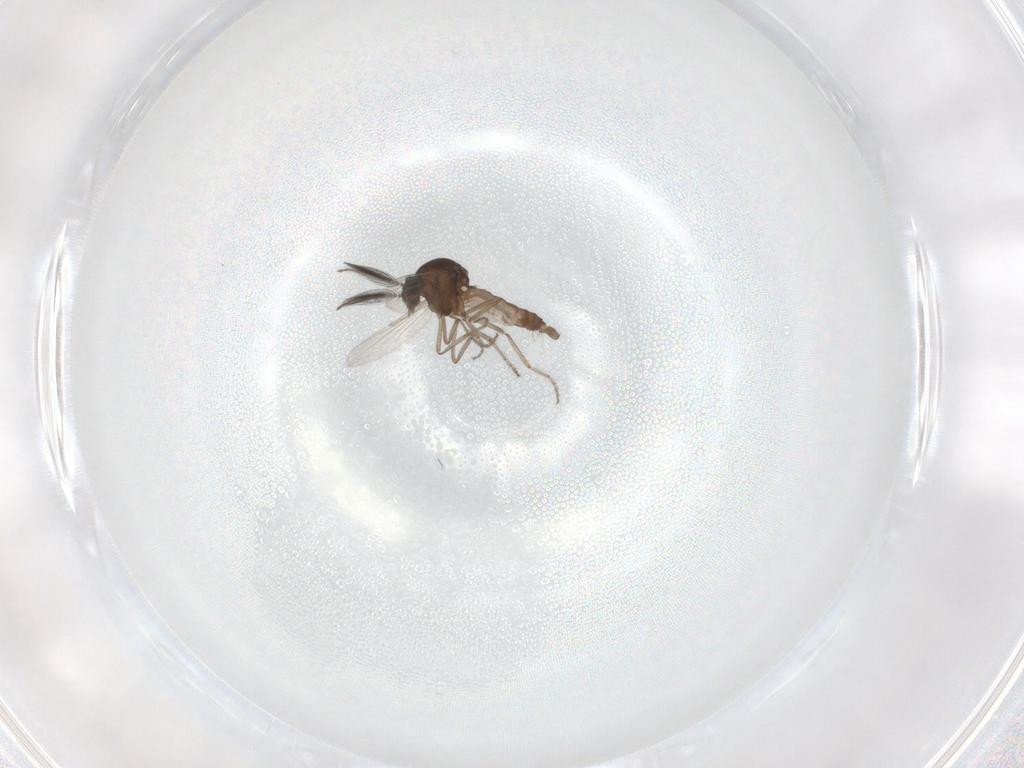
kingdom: Animalia
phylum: Arthropoda
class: Insecta
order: Diptera
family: Ceratopogonidae
